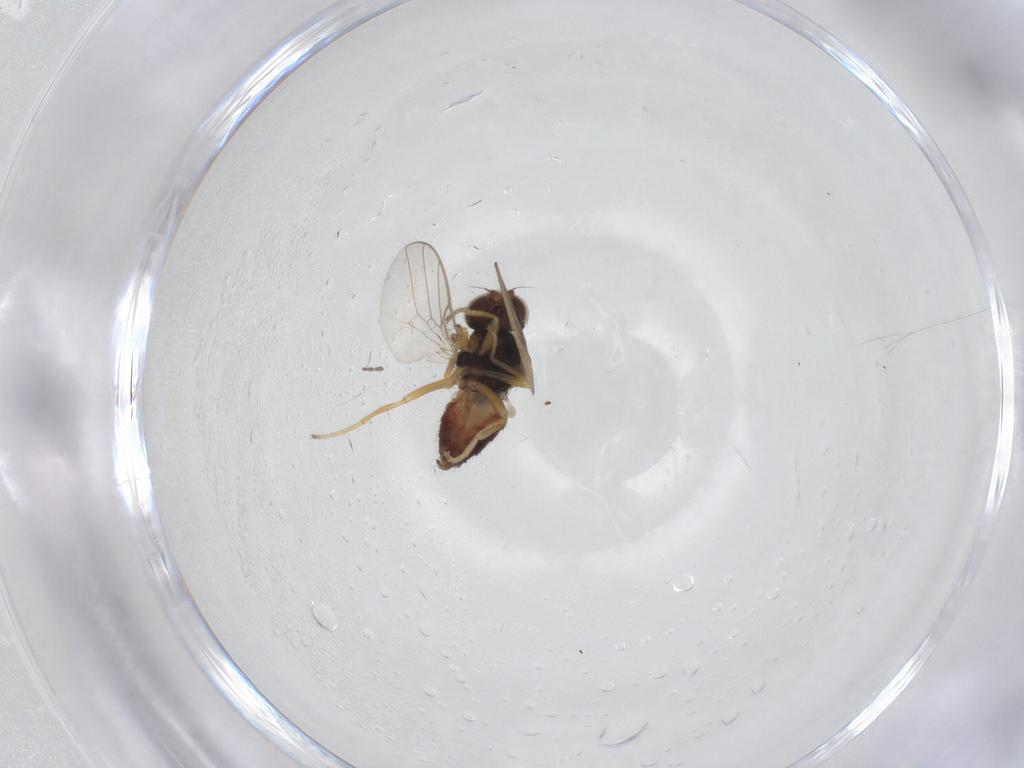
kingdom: Animalia
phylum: Arthropoda
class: Insecta
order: Diptera
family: Chloropidae
